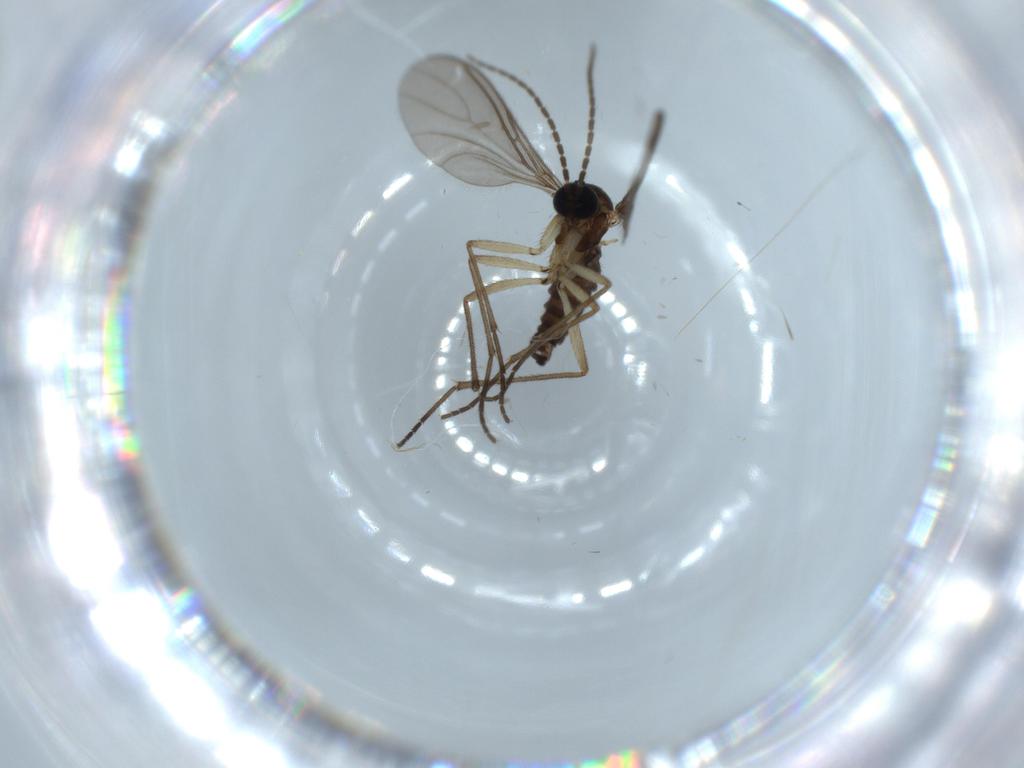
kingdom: Animalia
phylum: Arthropoda
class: Insecta
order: Diptera
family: Sciaridae
